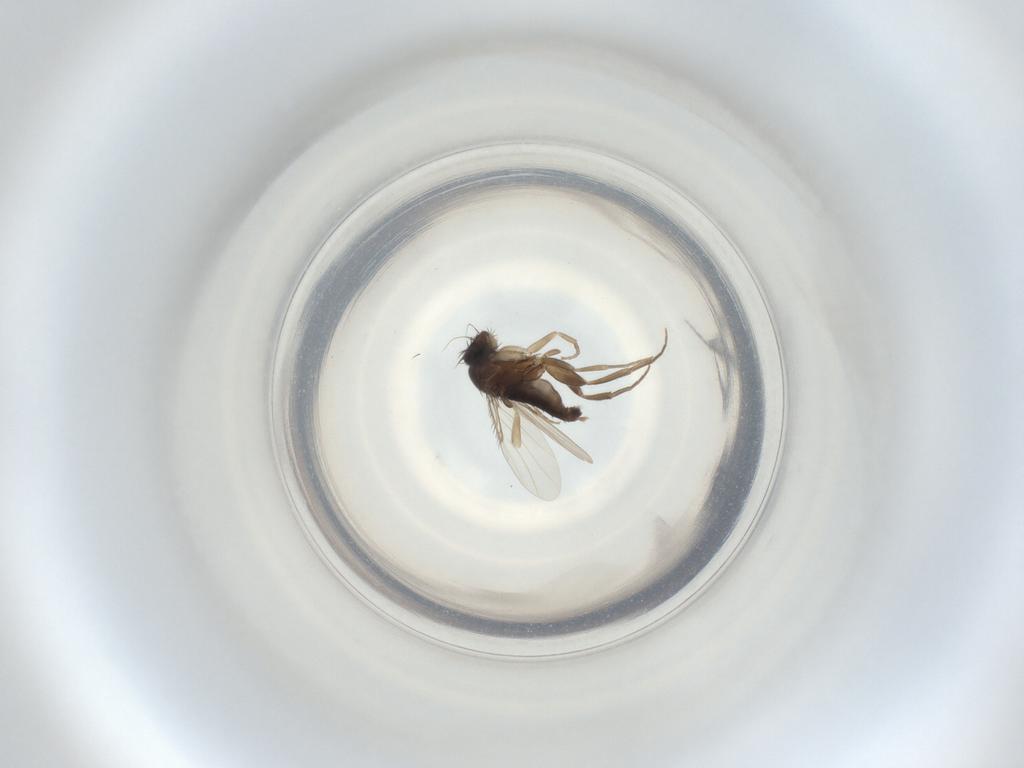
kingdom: Animalia
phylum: Arthropoda
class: Insecta
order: Diptera
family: Phoridae
